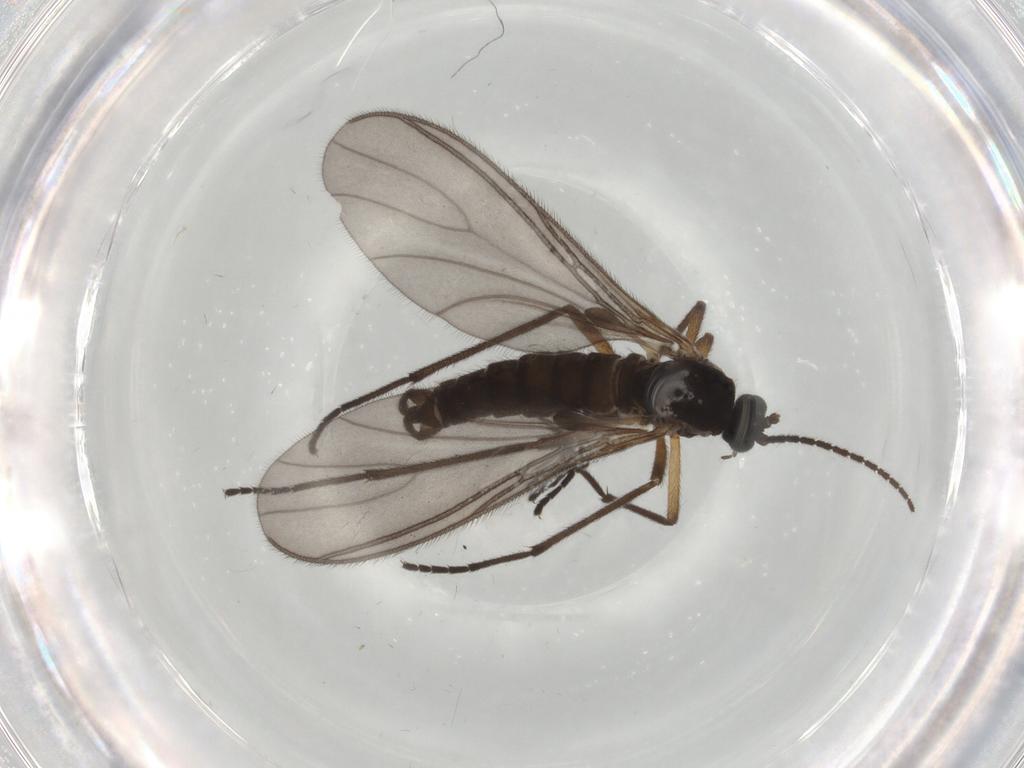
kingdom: Animalia
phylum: Arthropoda
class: Insecta
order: Diptera
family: Sciaridae
